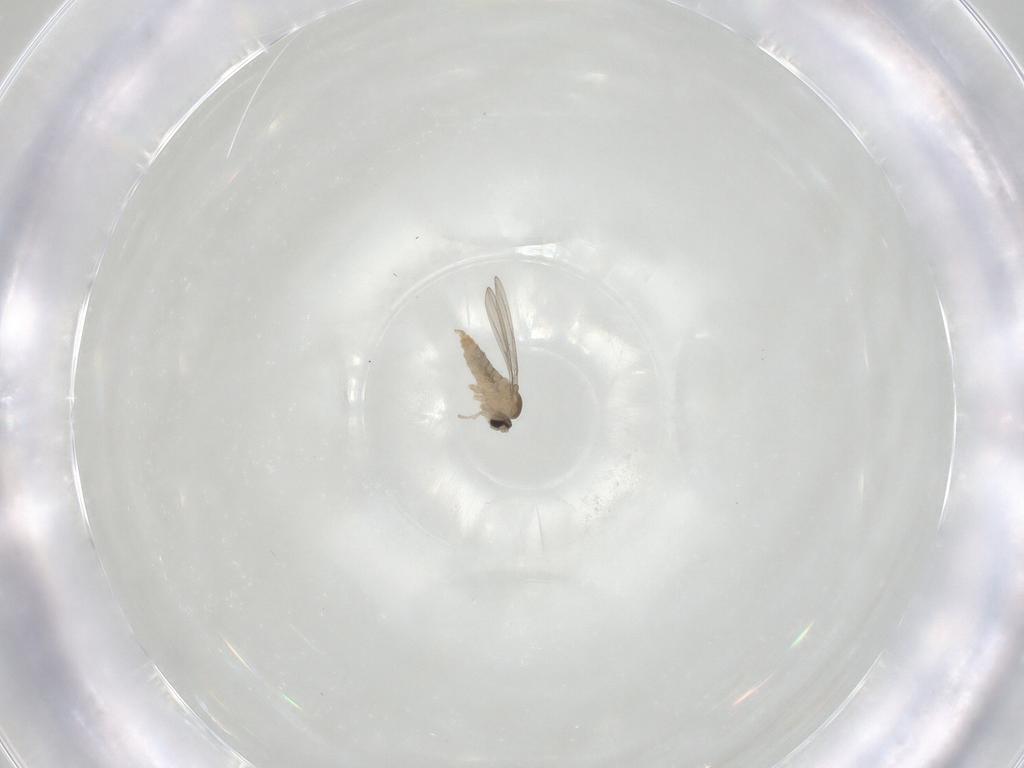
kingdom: Animalia
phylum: Arthropoda
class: Insecta
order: Diptera
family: Cecidomyiidae
